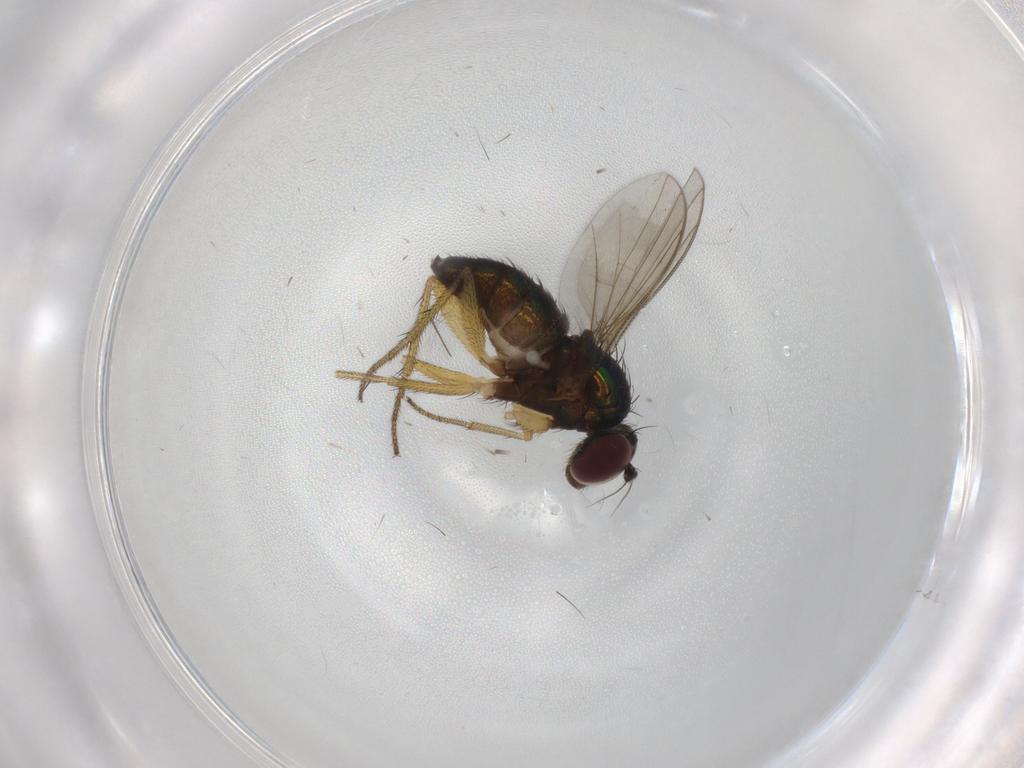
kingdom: Animalia
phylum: Arthropoda
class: Insecta
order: Diptera
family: Dolichopodidae
